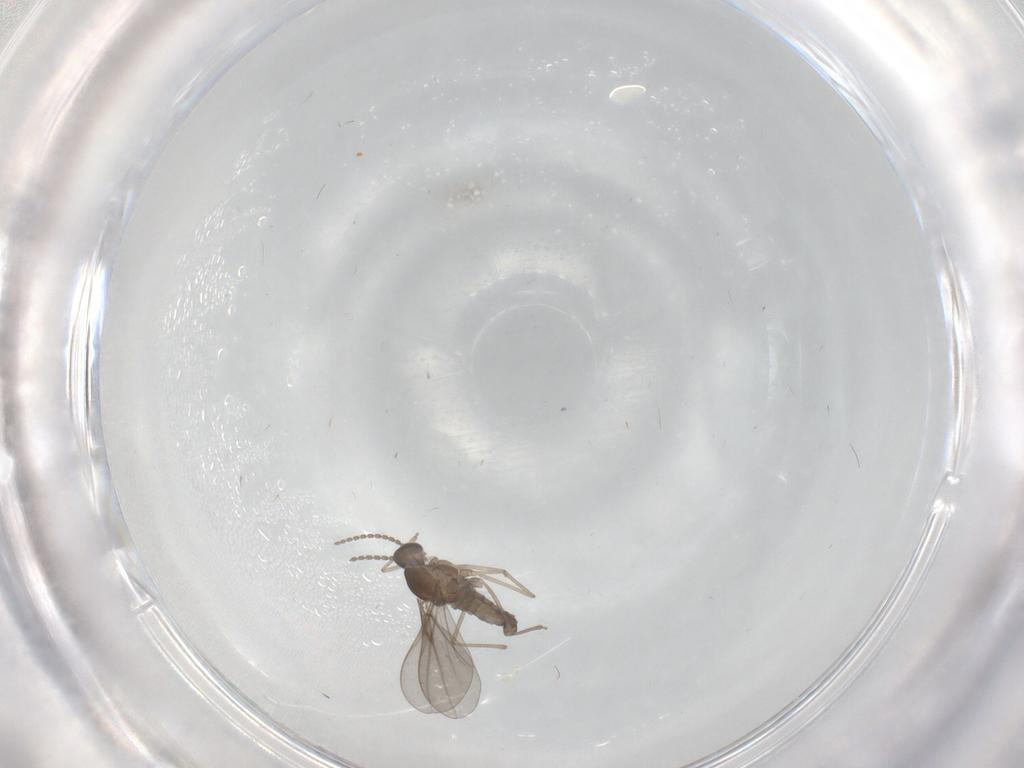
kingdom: Animalia
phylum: Arthropoda
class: Insecta
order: Diptera
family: Cecidomyiidae
